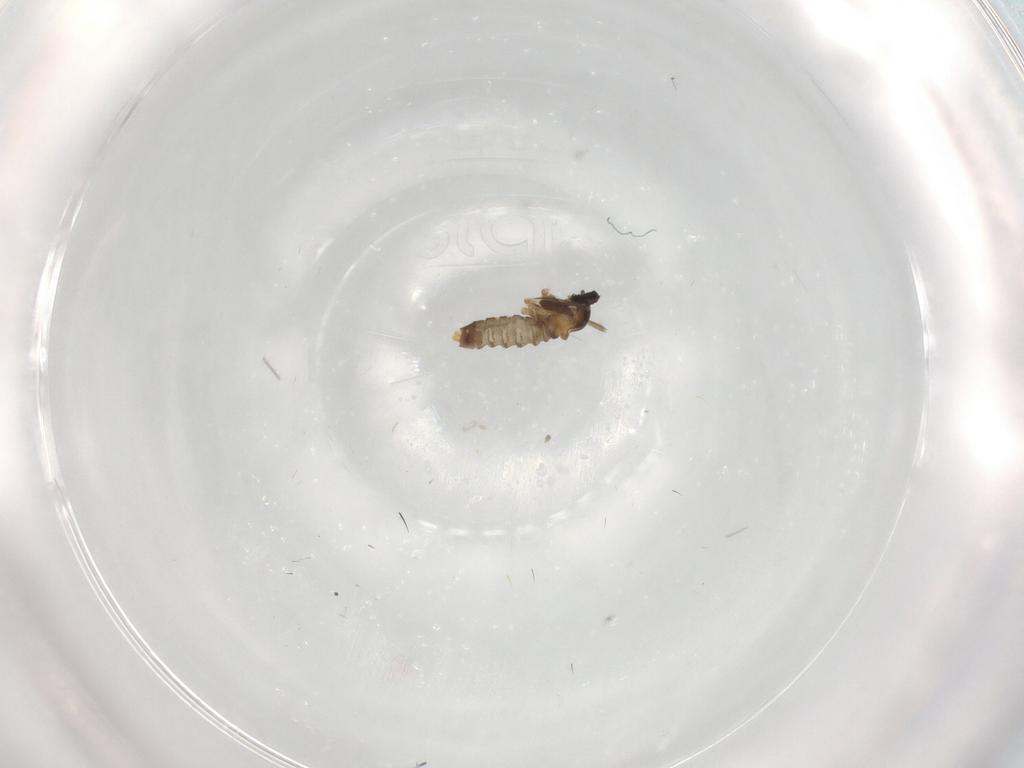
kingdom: Animalia
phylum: Arthropoda
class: Insecta
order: Diptera
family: Cecidomyiidae
